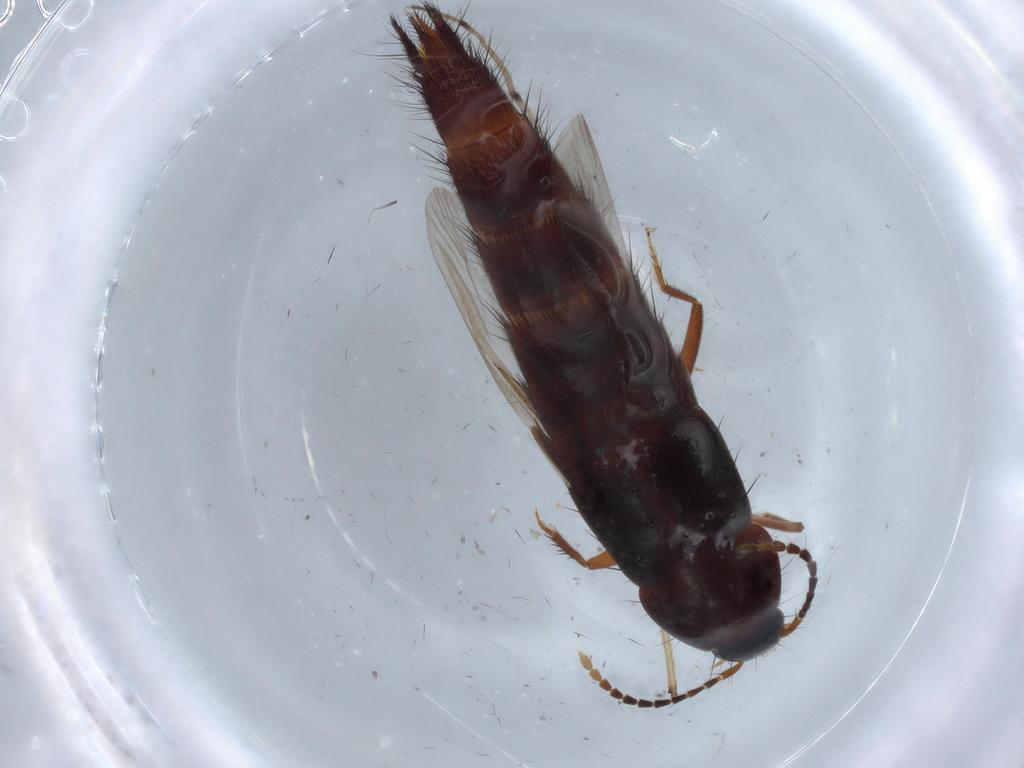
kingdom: Animalia
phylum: Arthropoda
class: Insecta
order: Coleoptera
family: Staphylinidae
